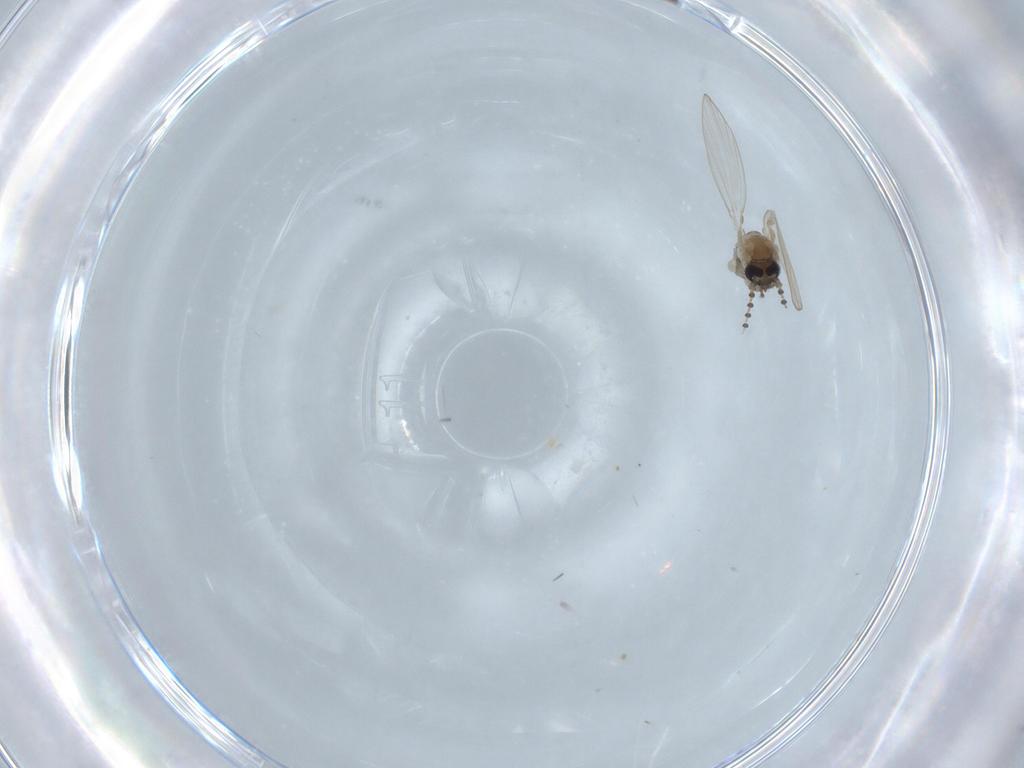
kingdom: Animalia
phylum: Arthropoda
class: Insecta
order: Diptera
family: Psychodidae
